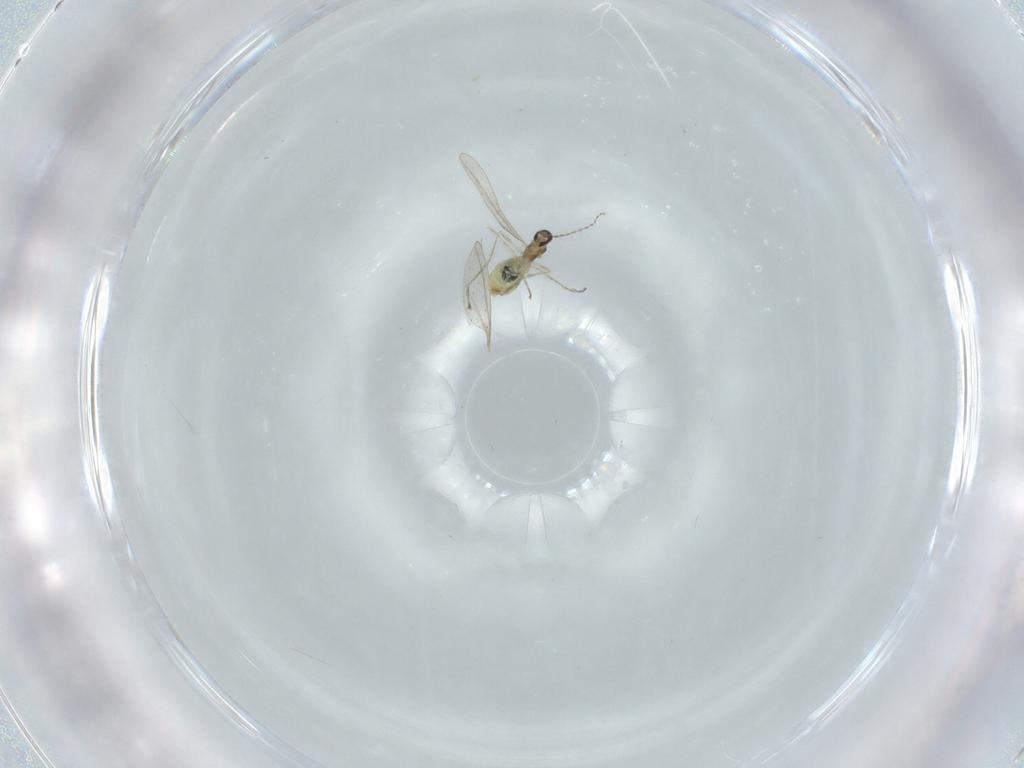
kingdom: Animalia
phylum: Arthropoda
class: Insecta
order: Diptera
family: Cecidomyiidae
